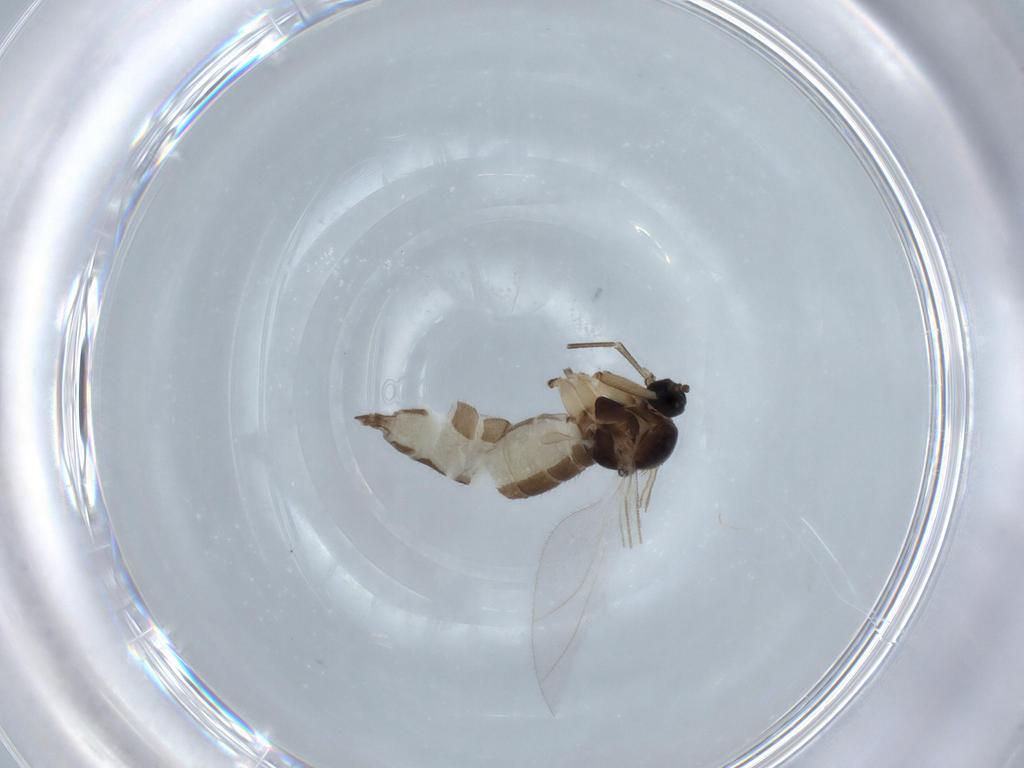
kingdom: Animalia
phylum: Arthropoda
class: Insecta
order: Diptera
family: Sciaridae
